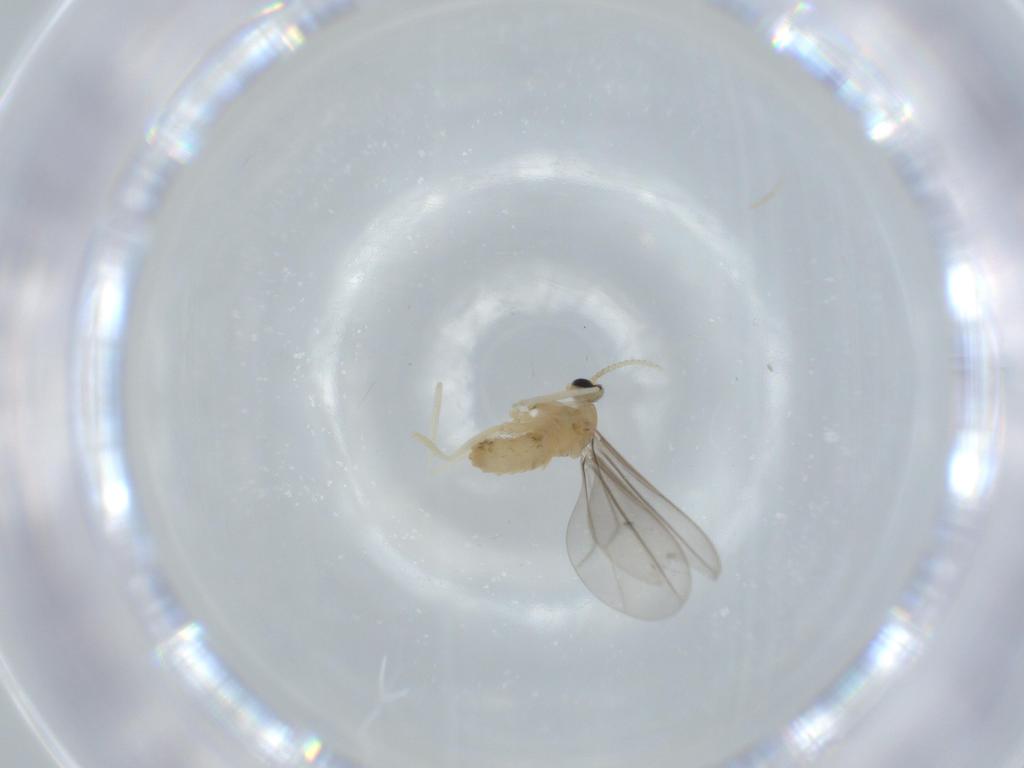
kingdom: Animalia
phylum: Arthropoda
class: Insecta
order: Diptera
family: Cecidomyiidae
